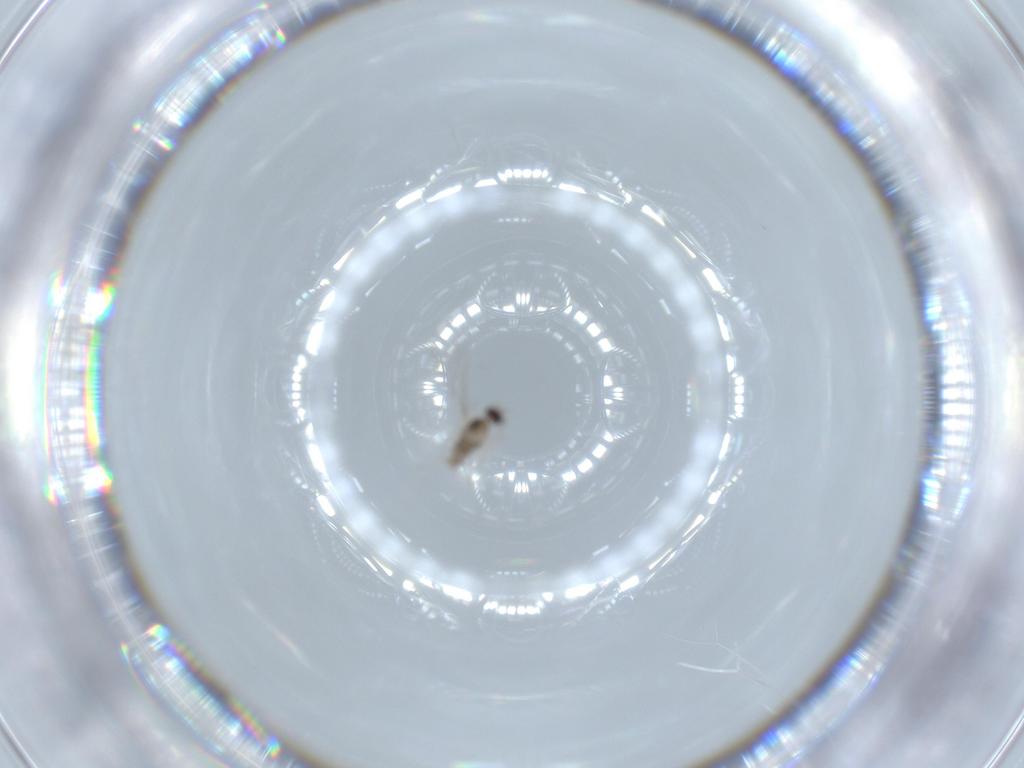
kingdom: Animalia
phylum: Arthropoda
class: Insecta
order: Diptera
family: Cecidomyiidae
